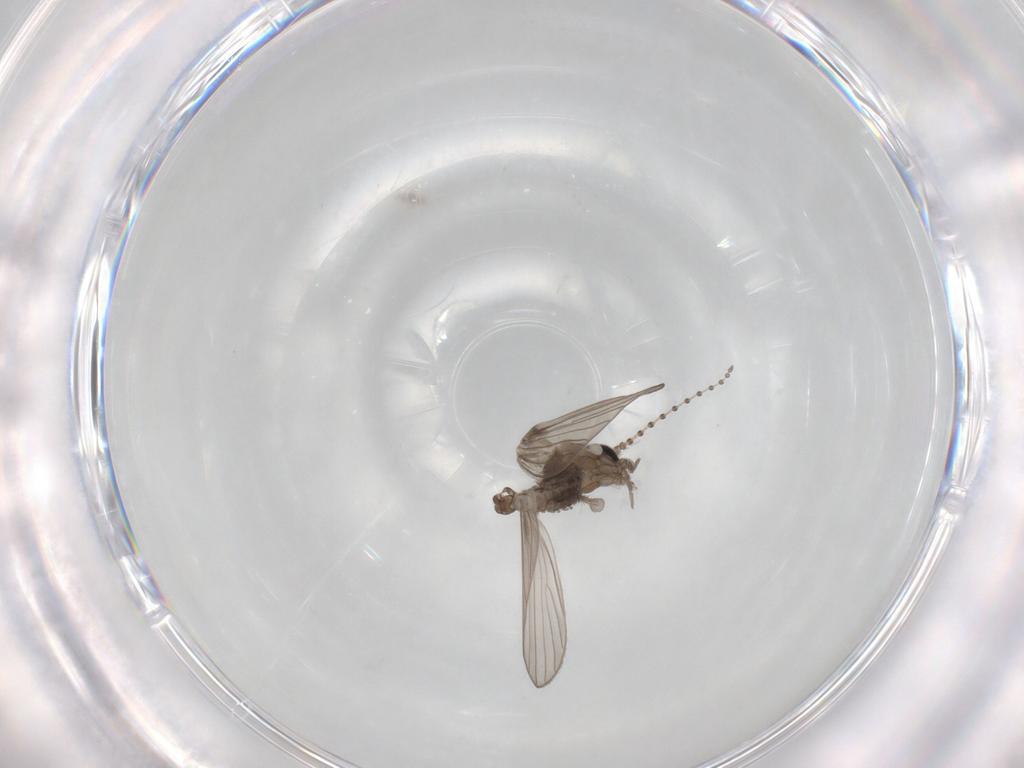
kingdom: Animalia
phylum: Arthropoda
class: Insecta
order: Diptera
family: Psychodidae
